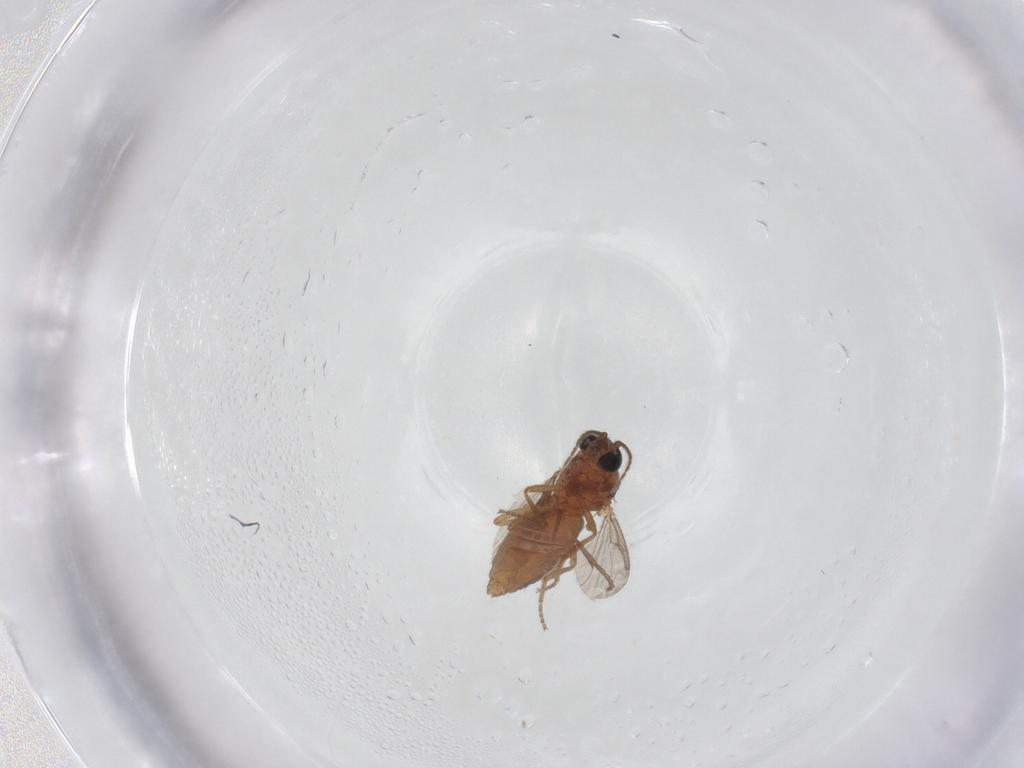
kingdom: Animalia
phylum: Arthropoda
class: Insecta
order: Diptera
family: Ceratopogonidae
